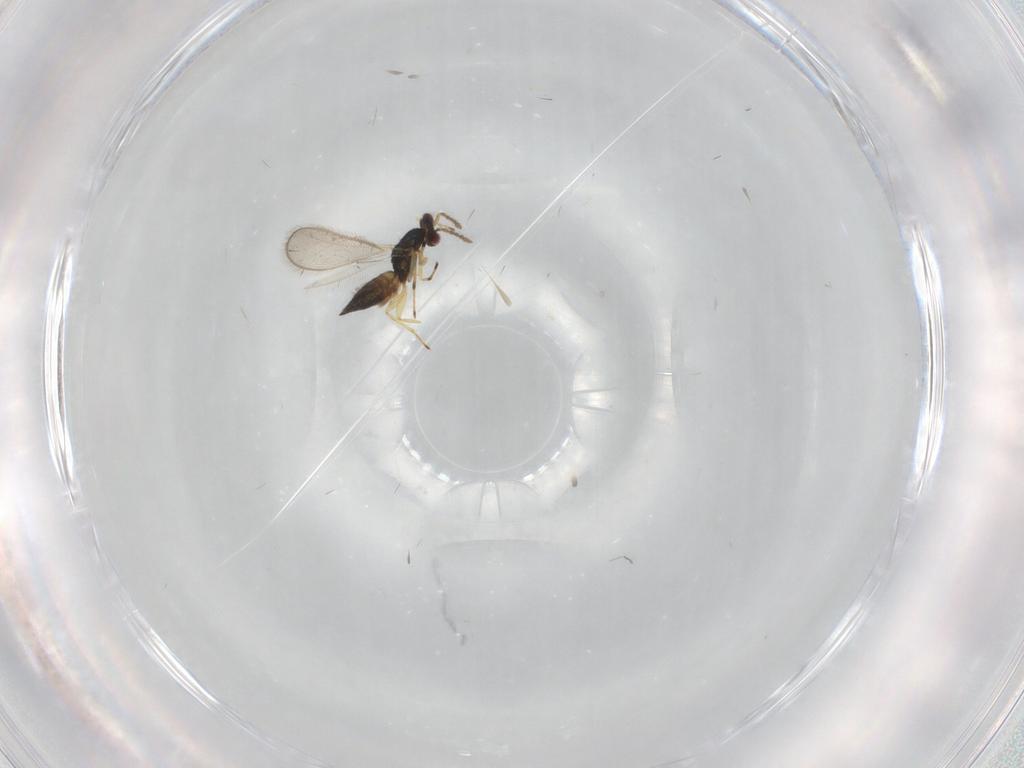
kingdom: Animalia
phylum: Arthropoda
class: Insecta
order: Hymenoptera
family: Eulophidae
